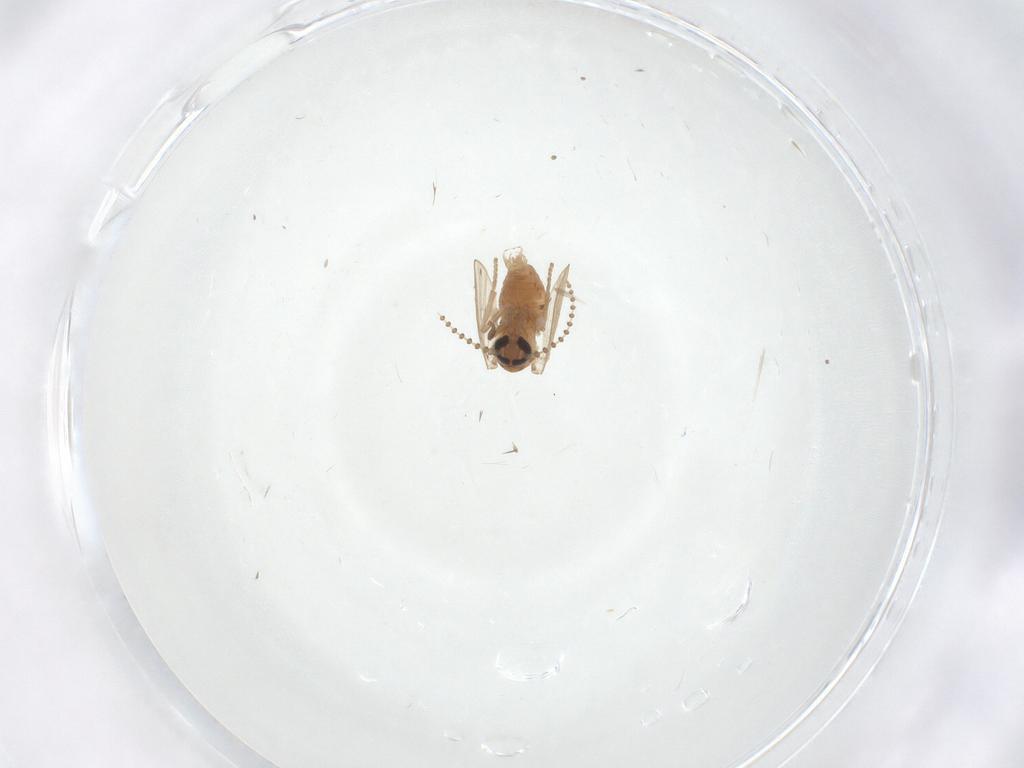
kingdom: Animalia
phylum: Arthropoda
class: Insecta
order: Diptera
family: Psychodidae
